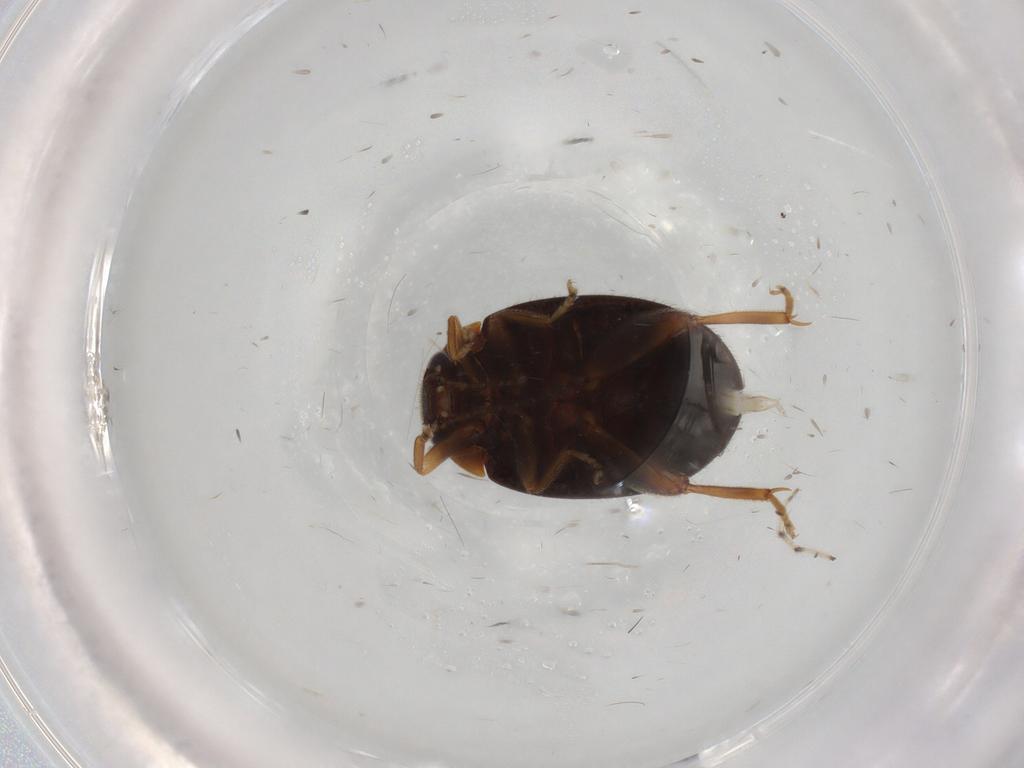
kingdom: Animalia
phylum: Arthropoda
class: Insecta
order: Coleoptera
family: Scirtidae
